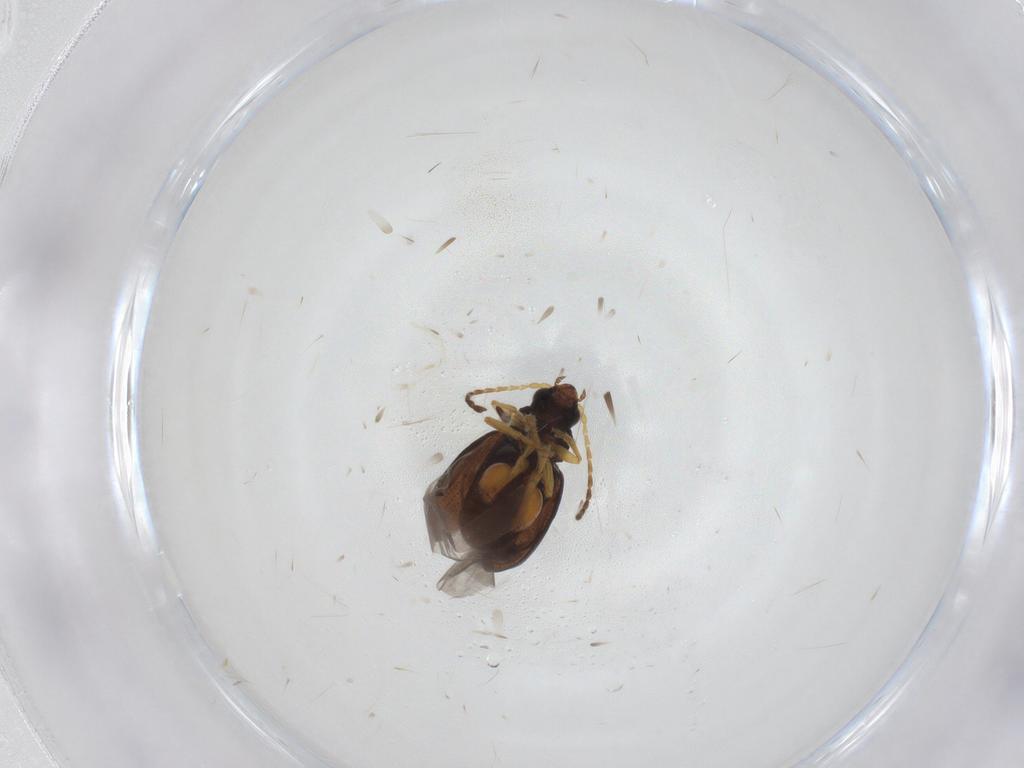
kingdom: Animalia
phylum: Arthropoda
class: Insecta
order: Coleoptera
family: Chrysomelidae
